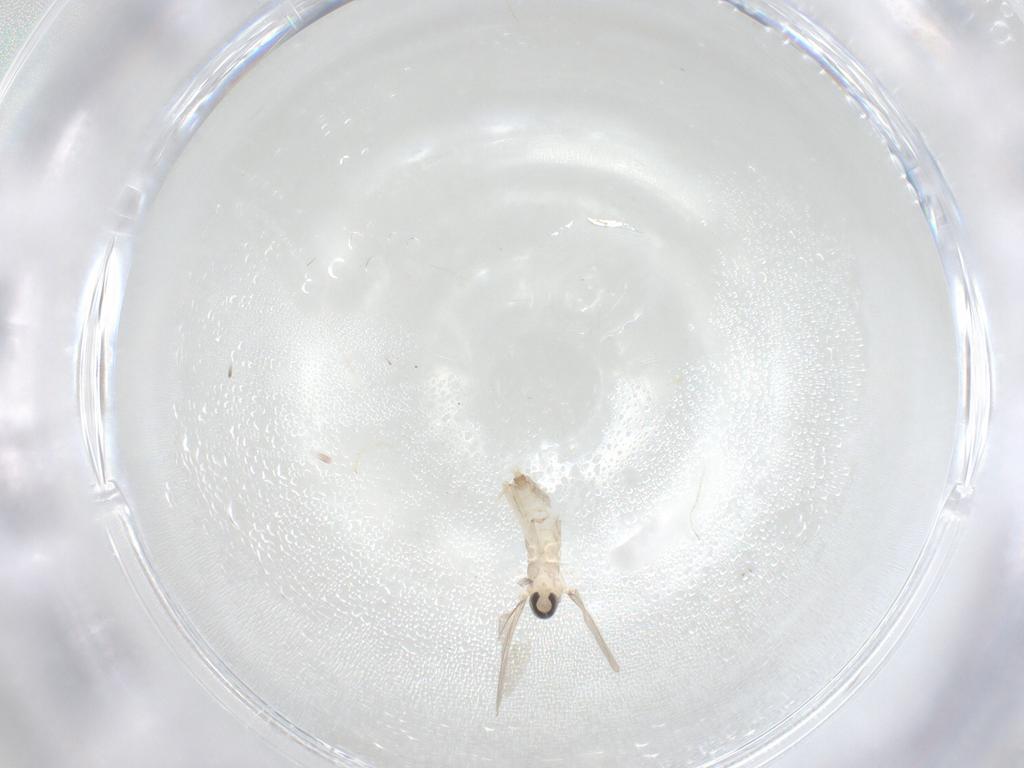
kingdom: Animalia
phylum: Arthropoda
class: Insecta
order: Diptera
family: Cecidomyiidae
